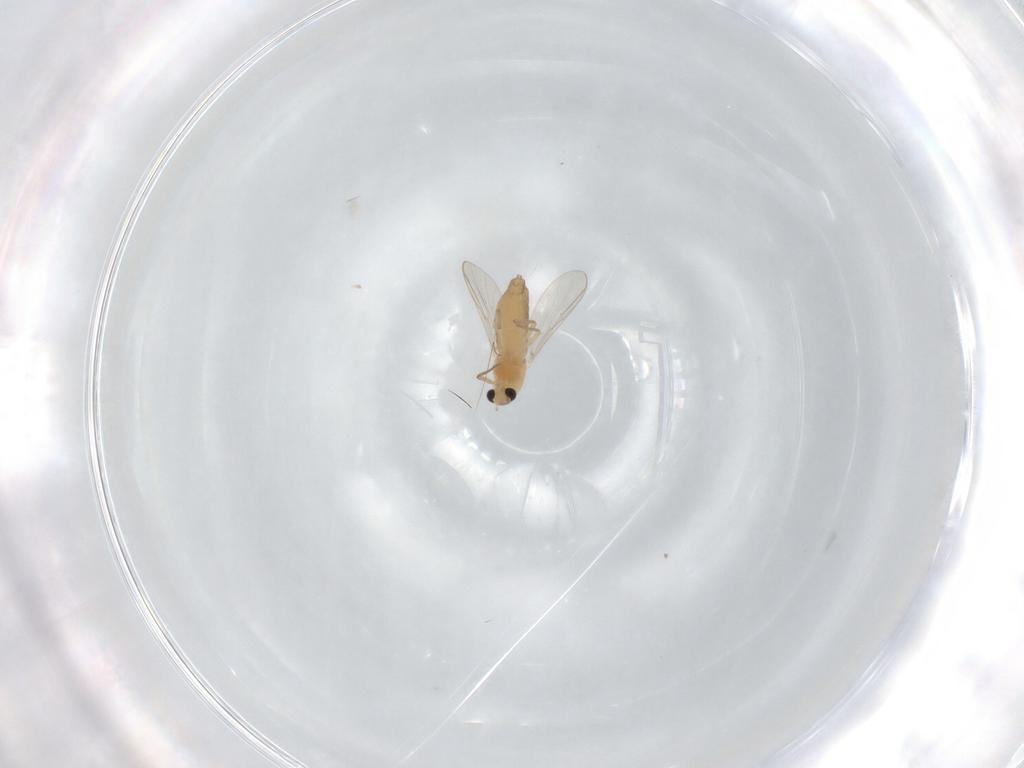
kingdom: Animalia
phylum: Arthropoda
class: Insecta
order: Diptera
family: Chironomidae
